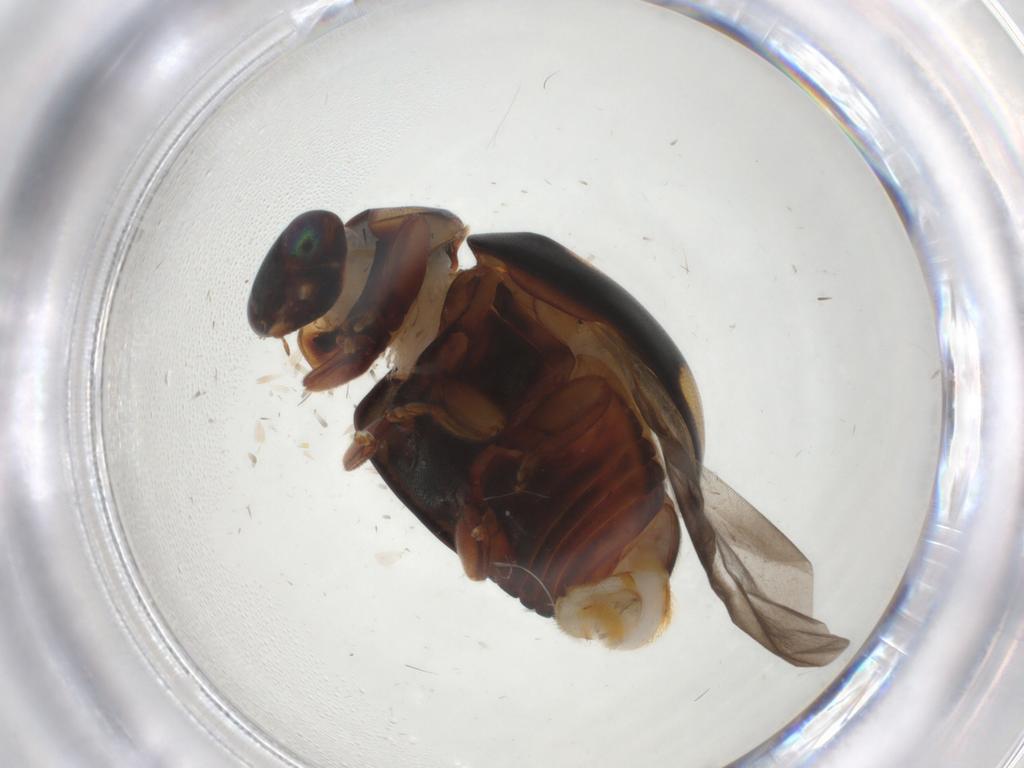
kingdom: Animalia
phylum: Arthropoda
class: Insecta
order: Coleoptera
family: Coccinellidae
